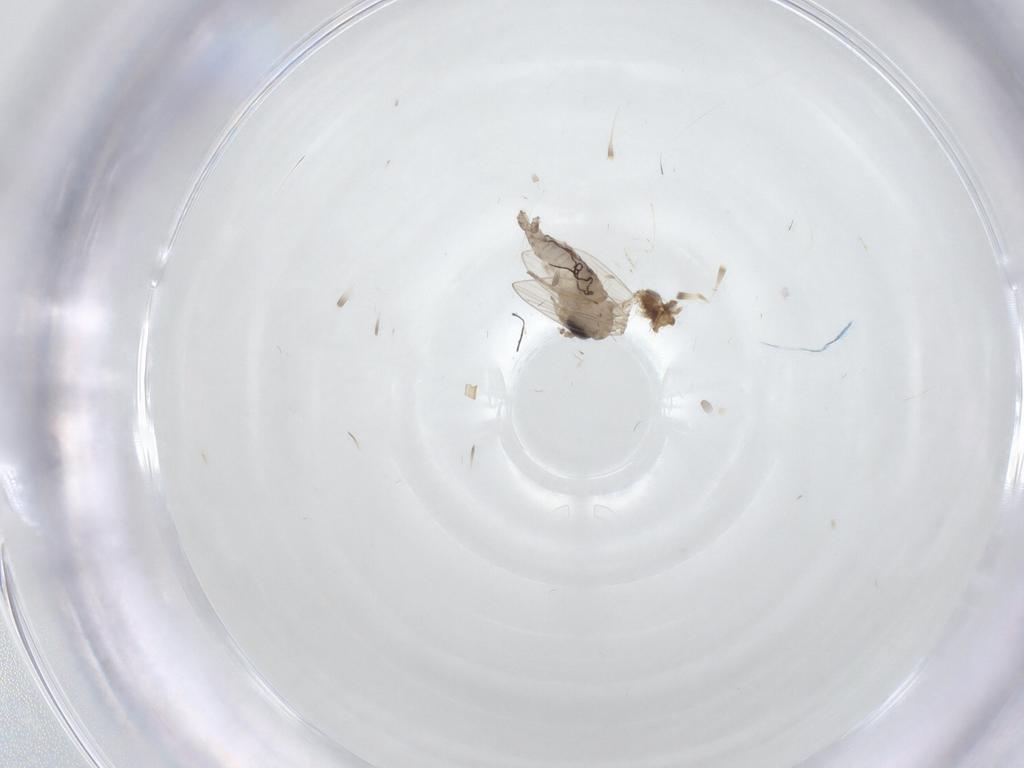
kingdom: Animalia
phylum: Arthropoda
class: Insecta
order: Diptera
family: Psychodidae
